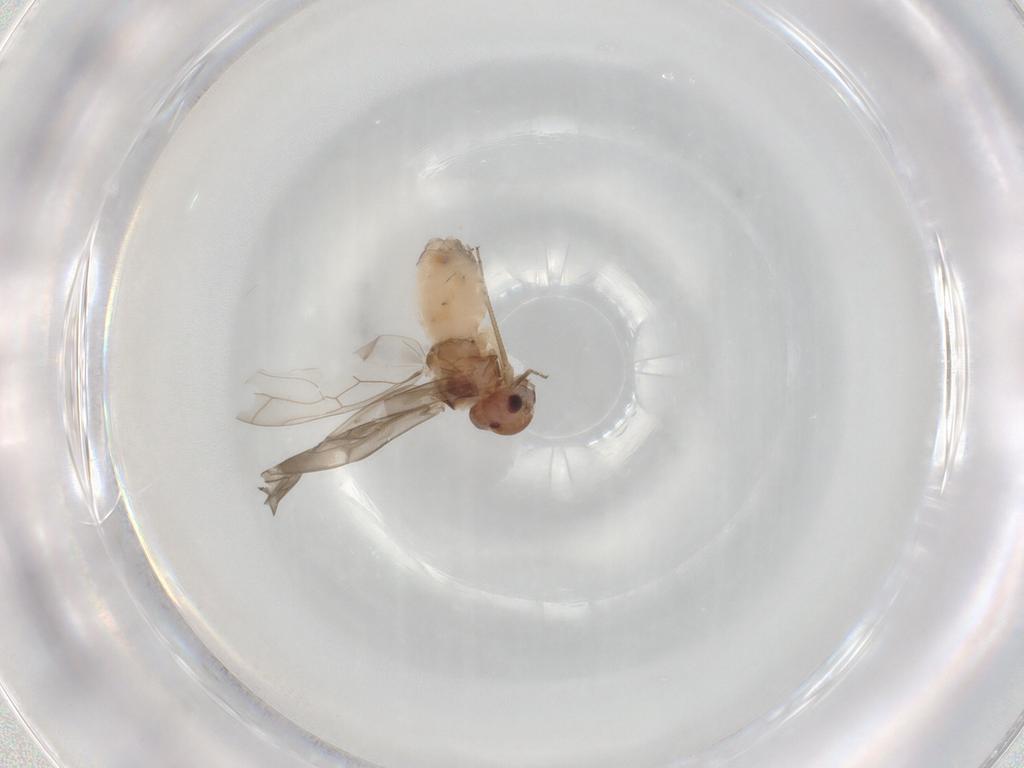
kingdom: Animalia
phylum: Arthropoda
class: Insecta
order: Psocodea
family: Peripsocidae
